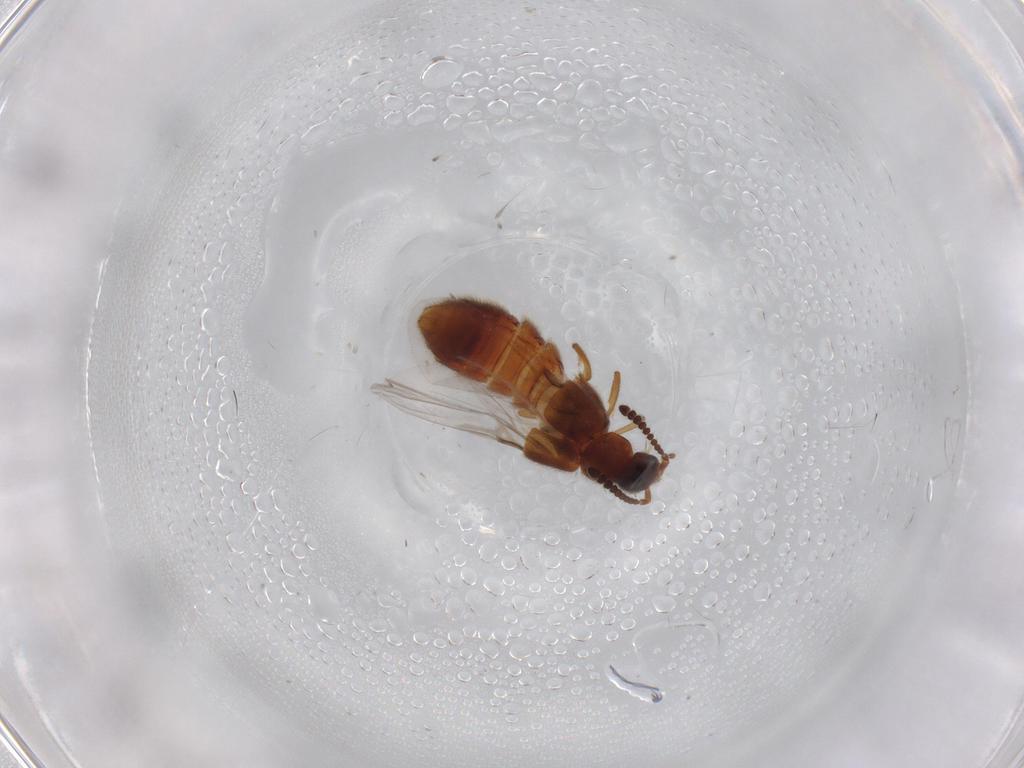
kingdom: Animalia
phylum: Arthropoda
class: Insecta
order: Coleoptera
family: Staphylinidae
